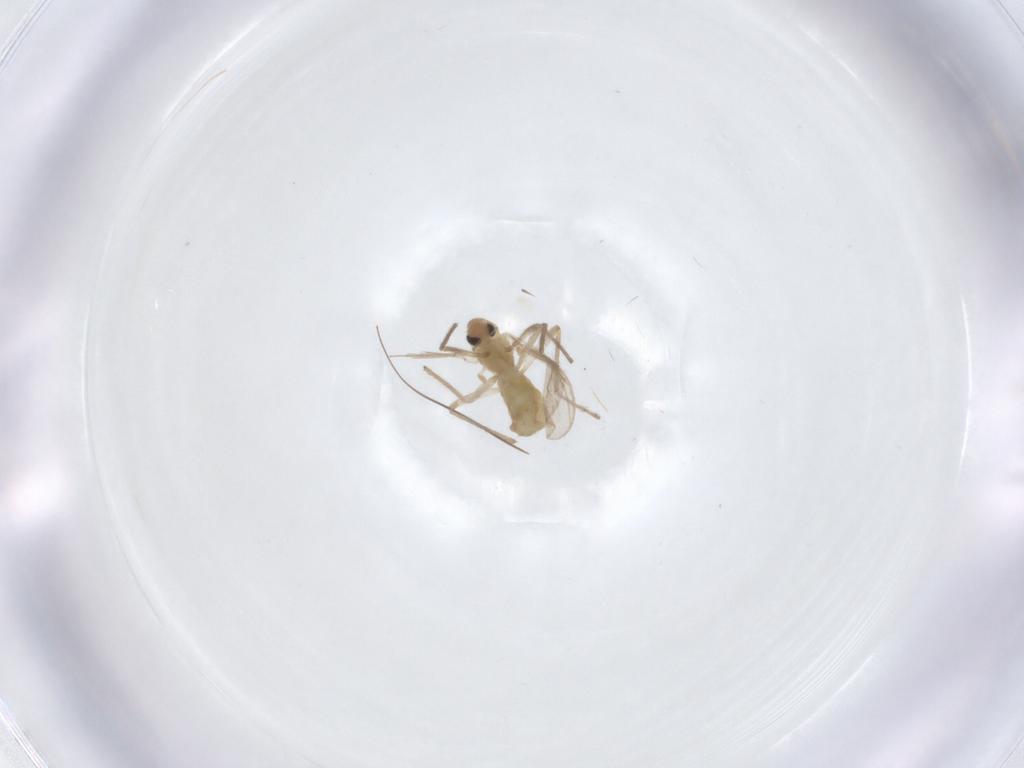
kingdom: Animalia
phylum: Arthropoda
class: Insecta
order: Diptera
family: Chironomidae
